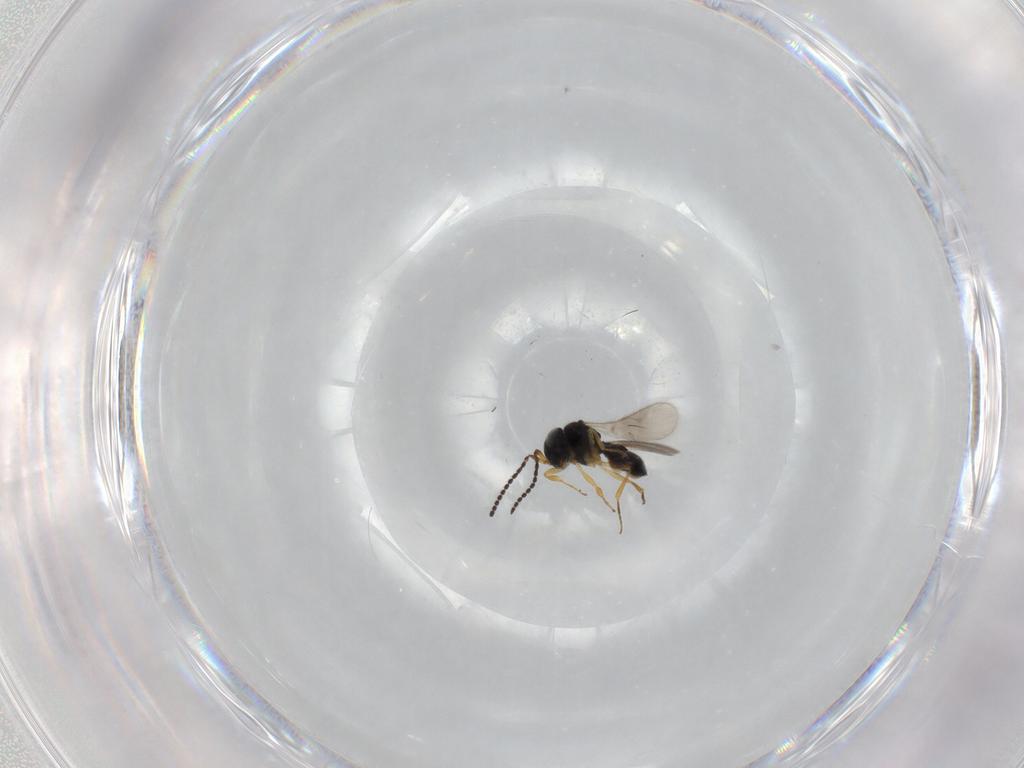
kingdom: Animalia
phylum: Arthropoda
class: Insecta
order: Hymenoptera
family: Scelionidae
